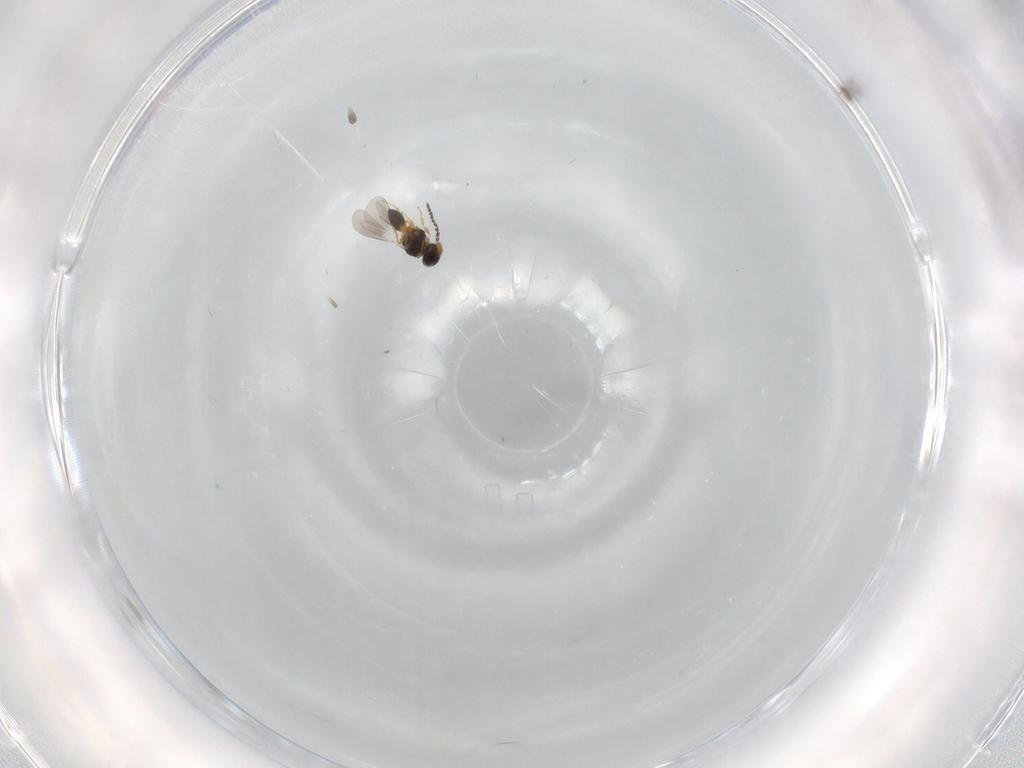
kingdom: Animalia
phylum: Arthropoda
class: Insecta
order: Hymenoptera
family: Platygastridae
